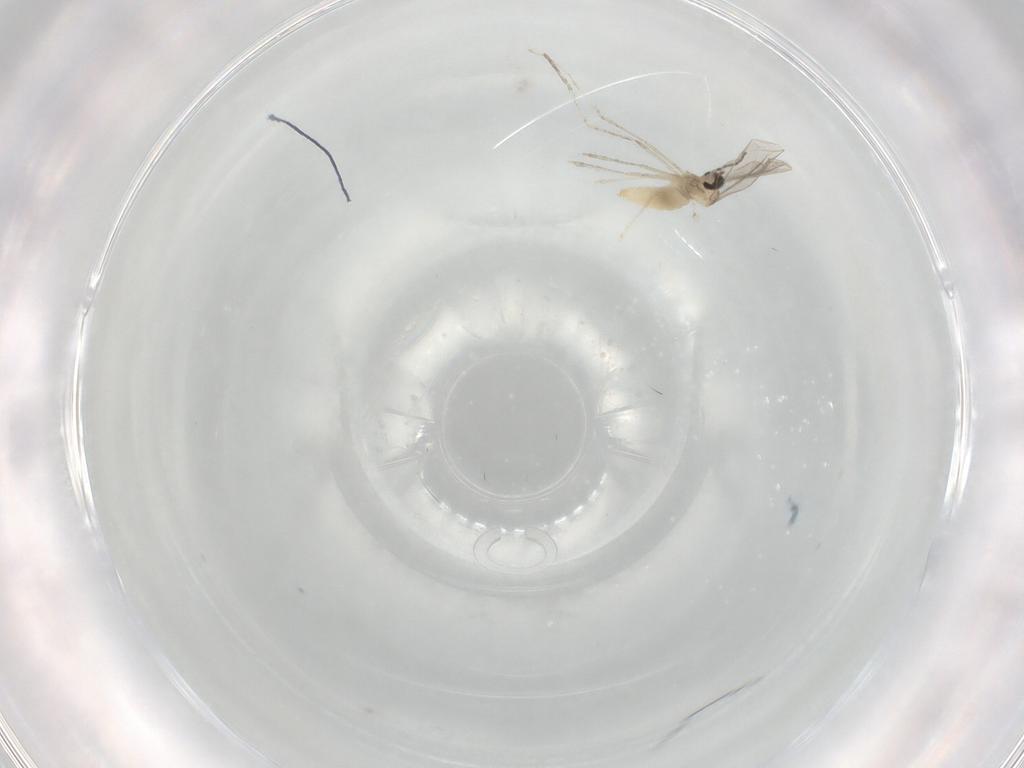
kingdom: Animalia
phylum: Arthropoda
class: Insecta
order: Diptera
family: Cecidomyiidae
